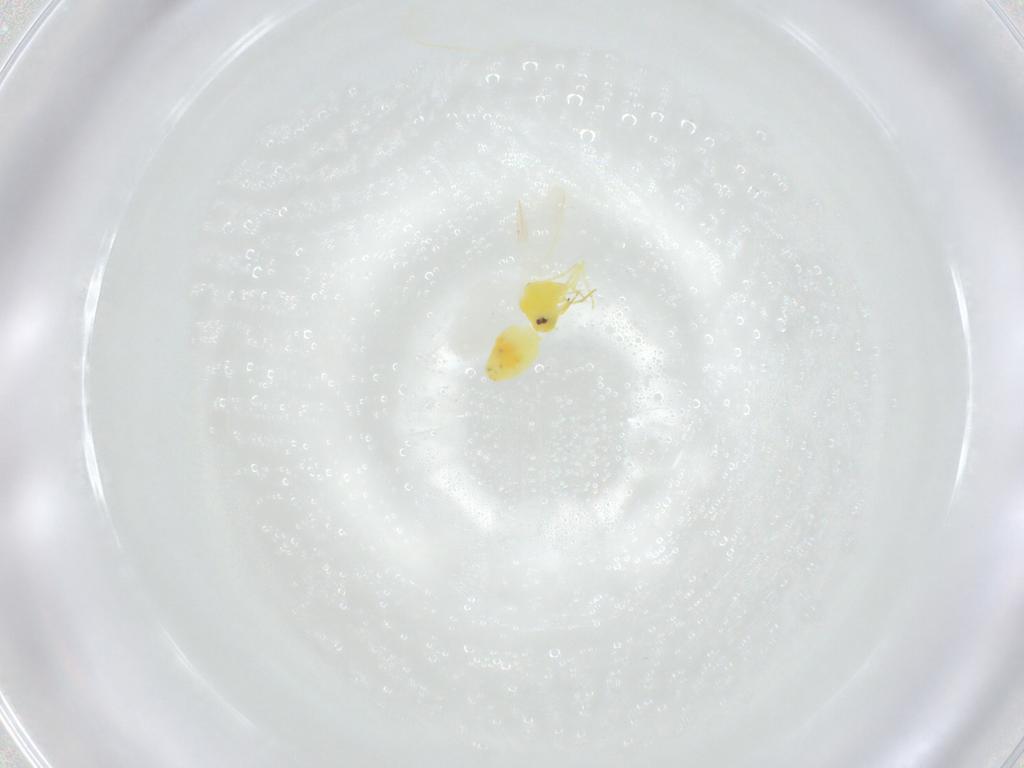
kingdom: Animalia
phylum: Arthropoda
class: Insecta
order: Hemiptera
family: Aleyrodidae
